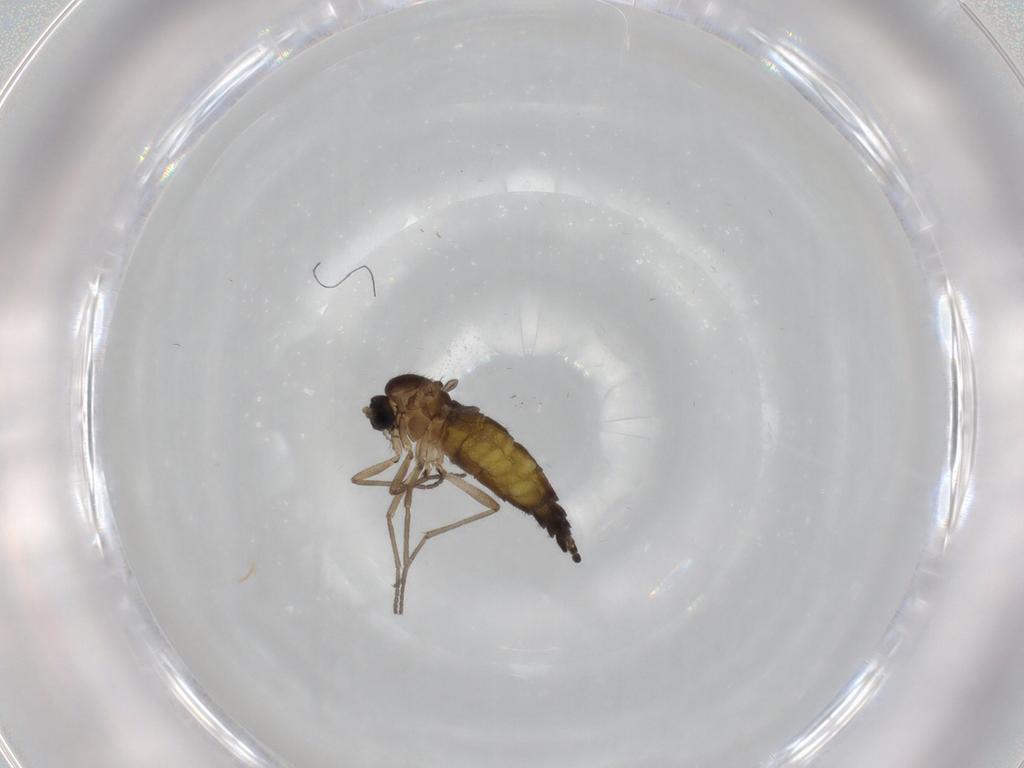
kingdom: Animalia
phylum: Arthropoda
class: Insecta
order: Diptera
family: Sciaridae
